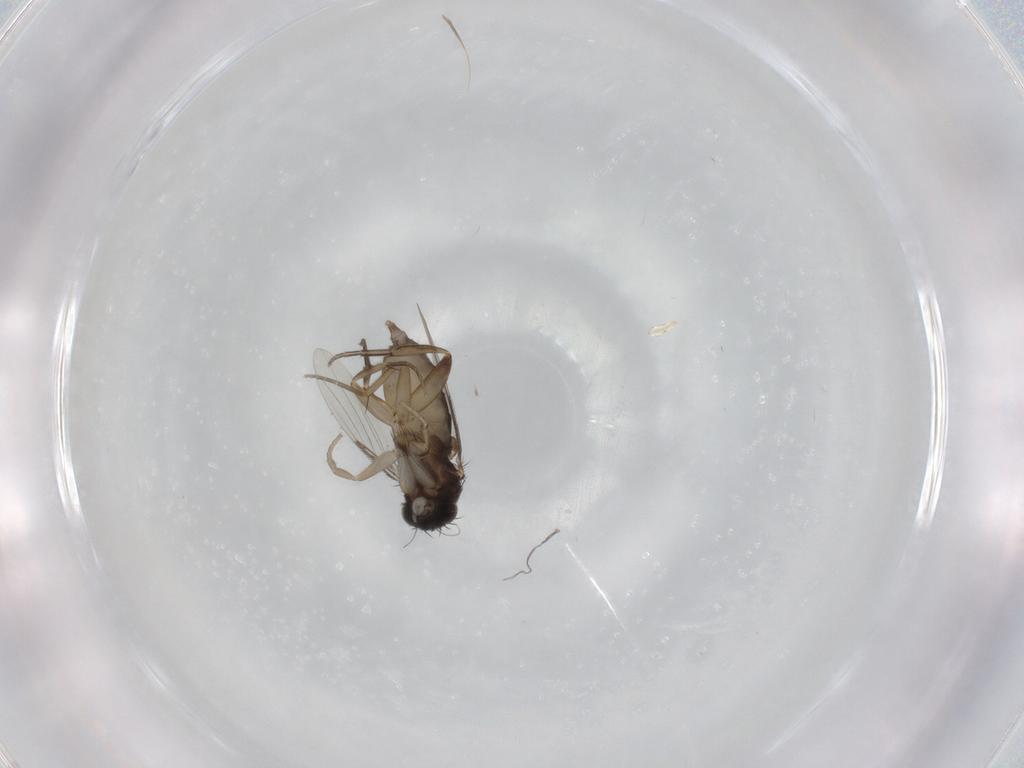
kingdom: Animalia
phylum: Arthropoda
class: Insecta
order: Diptera
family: Phoridae
